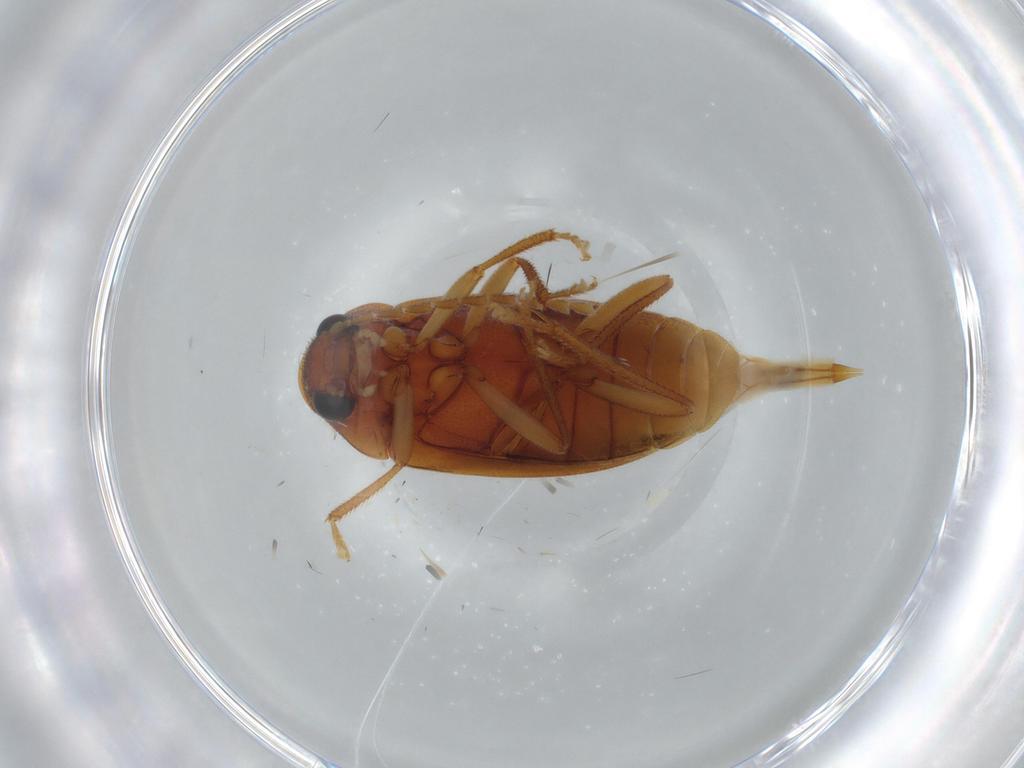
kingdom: Animalia
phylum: Arthropoda
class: Insecta
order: Coleoptera
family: Ptilodactylidae
